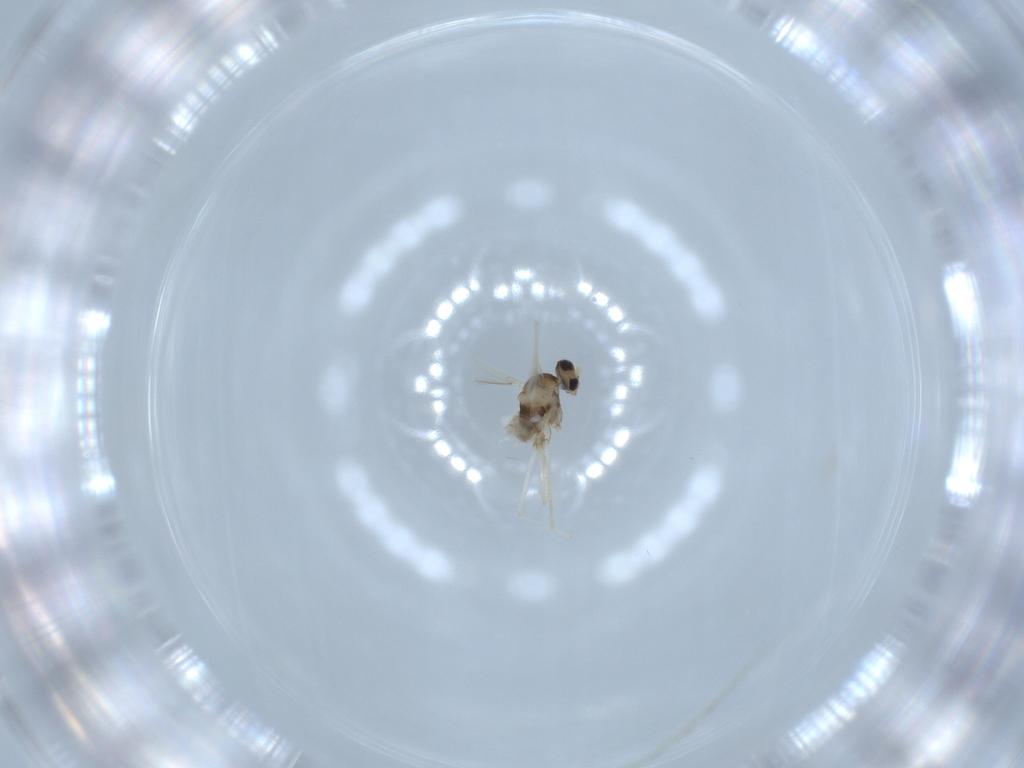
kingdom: Animalia
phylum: Arthropoda
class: Insecta
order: Diptera
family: Cecidomyiidae
